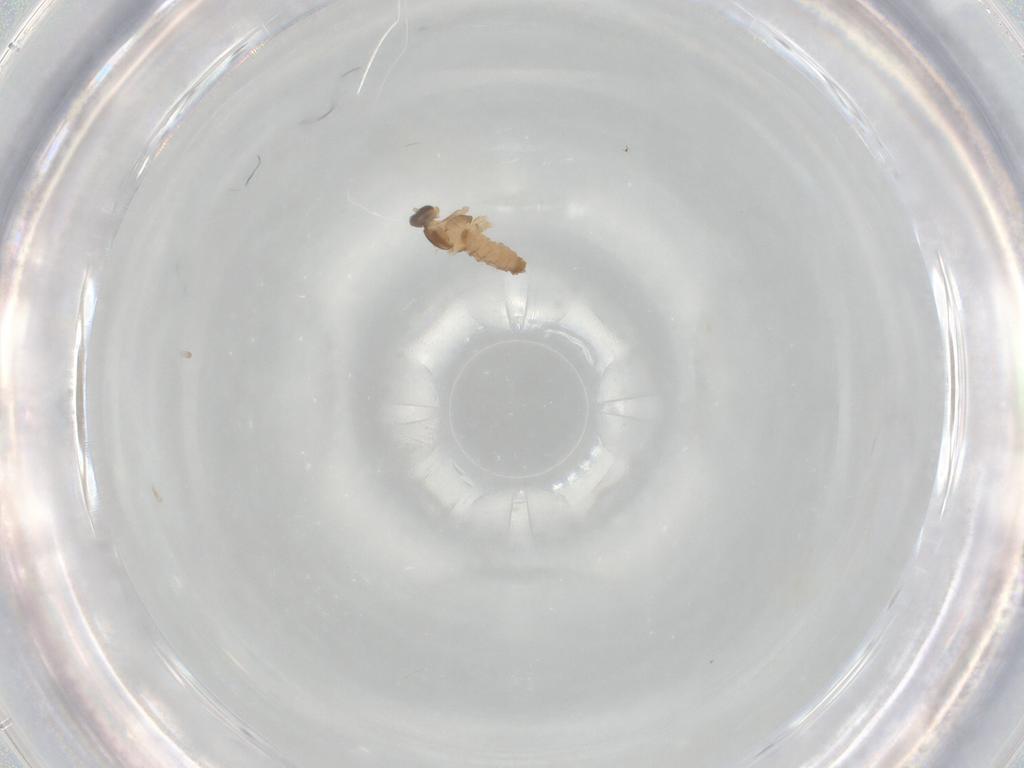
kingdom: Animalia
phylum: Arthropoda
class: Insecta
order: Diptera
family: Cecidomyiidae
